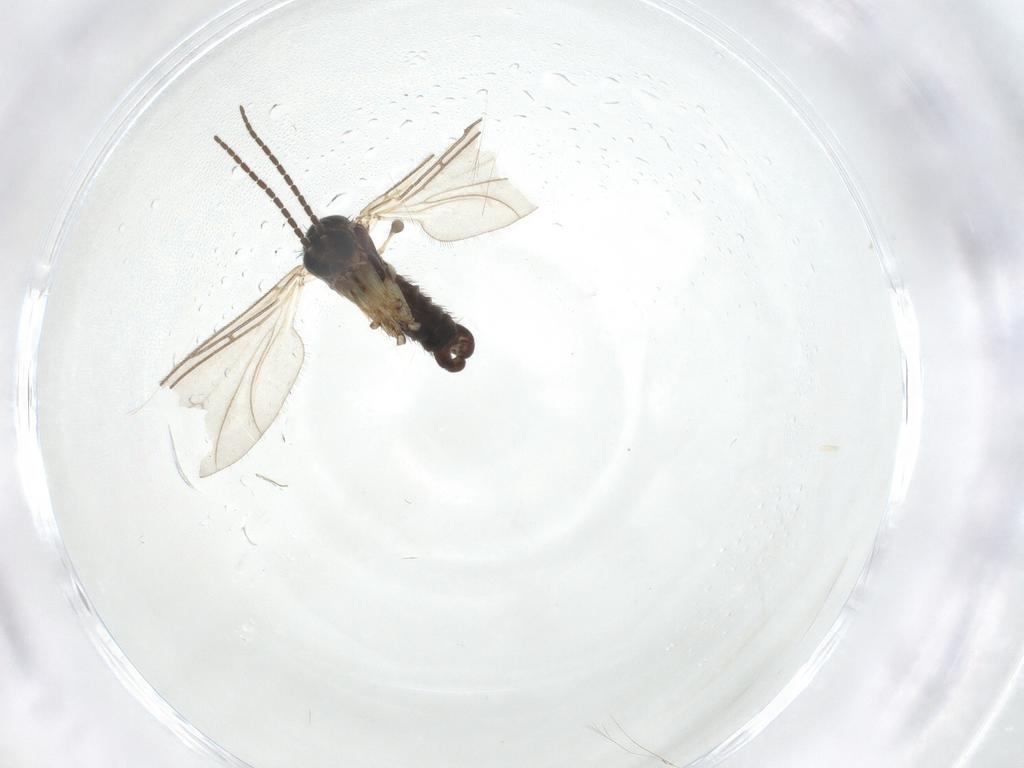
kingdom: Animalia
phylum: Arthropoda
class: Insecta
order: Diptera
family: Sciaridae
